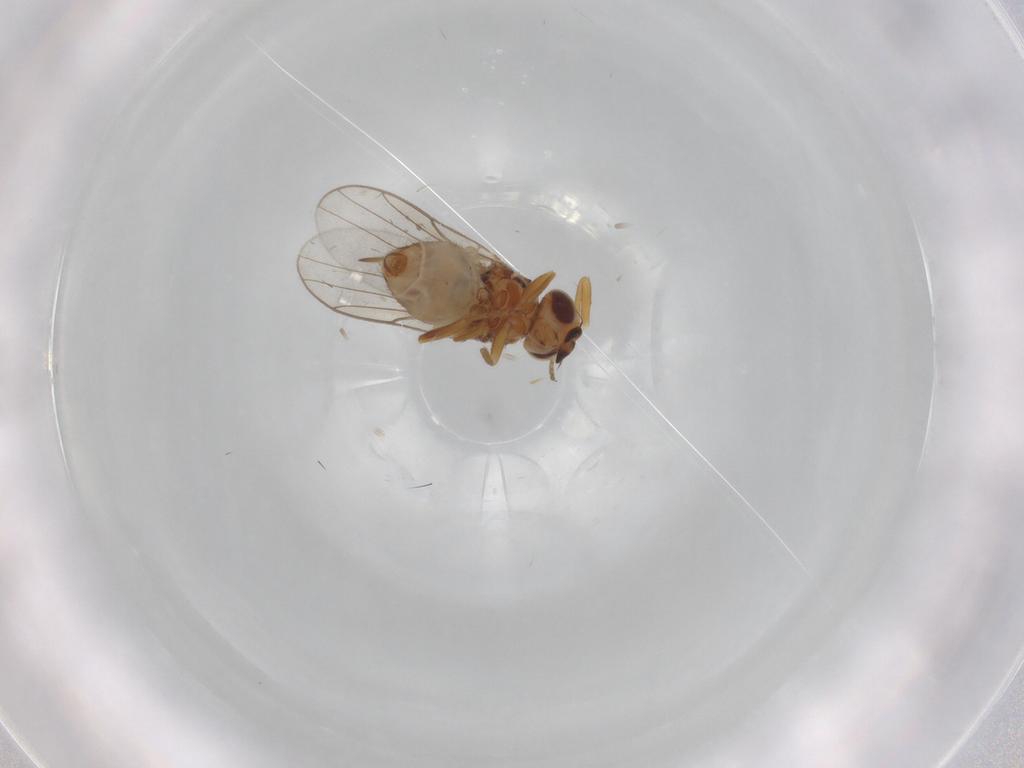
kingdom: Animalia
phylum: Arthropoda
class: Insecta
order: Diptera
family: Chloropidae
